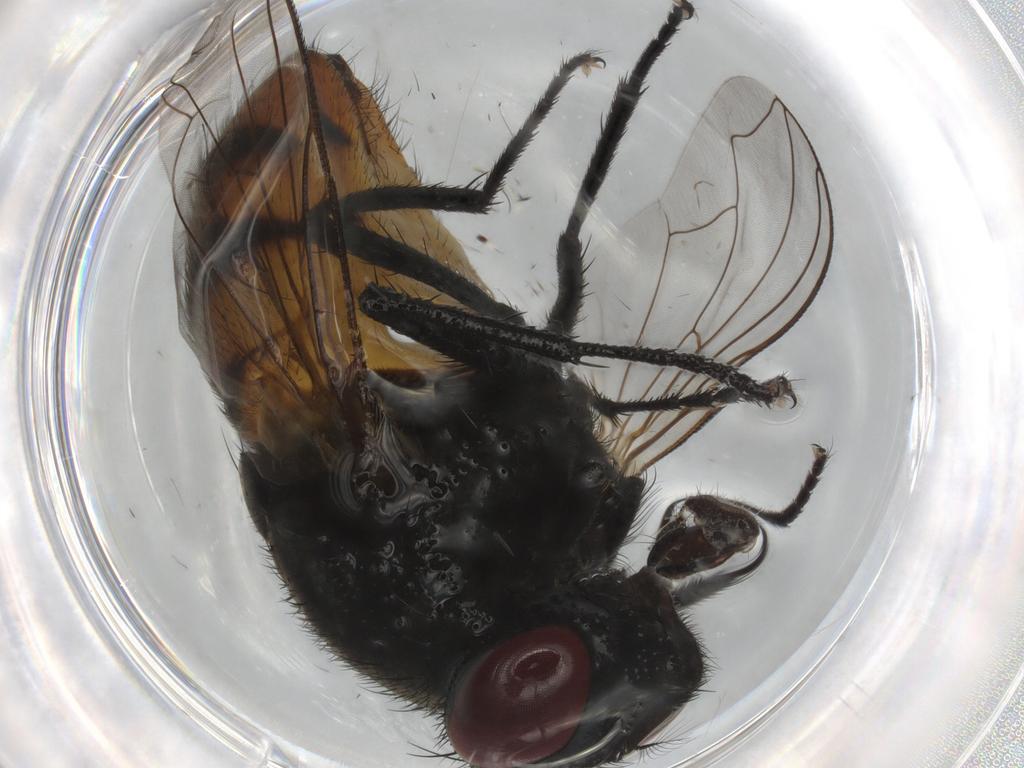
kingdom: Animalia
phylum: Arthropoda
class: Insecta
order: Diptera
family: Muscidae
